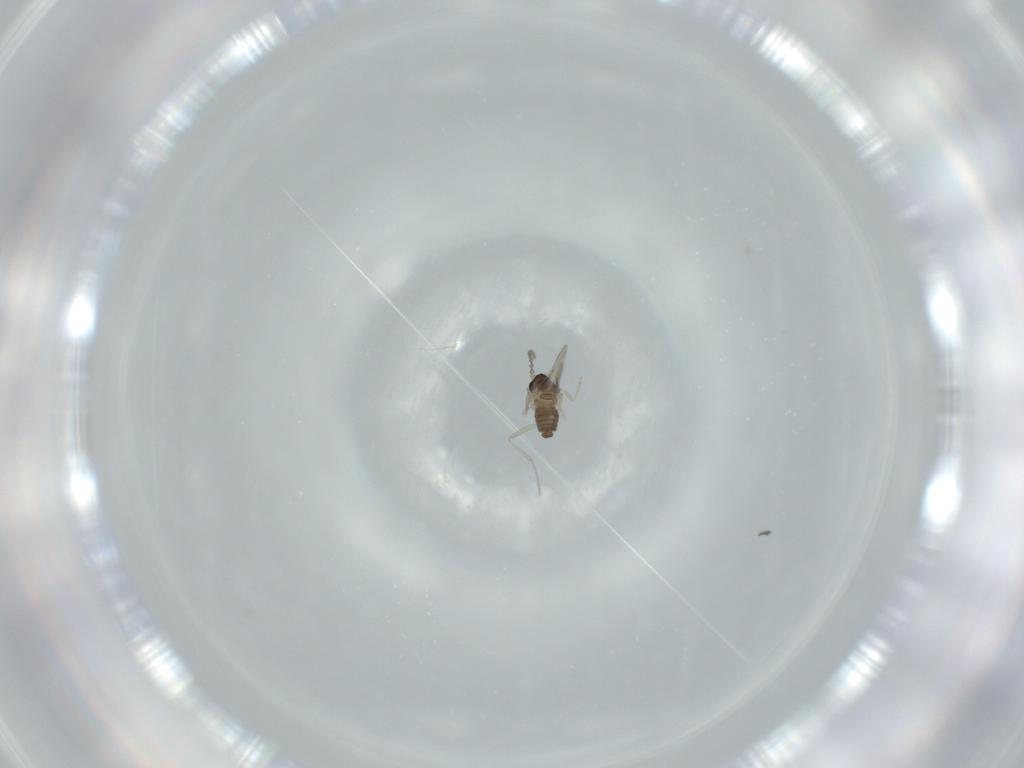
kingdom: Animalia
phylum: Arthropoda
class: Insecta
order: Diptera
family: Cecidomyiidae
